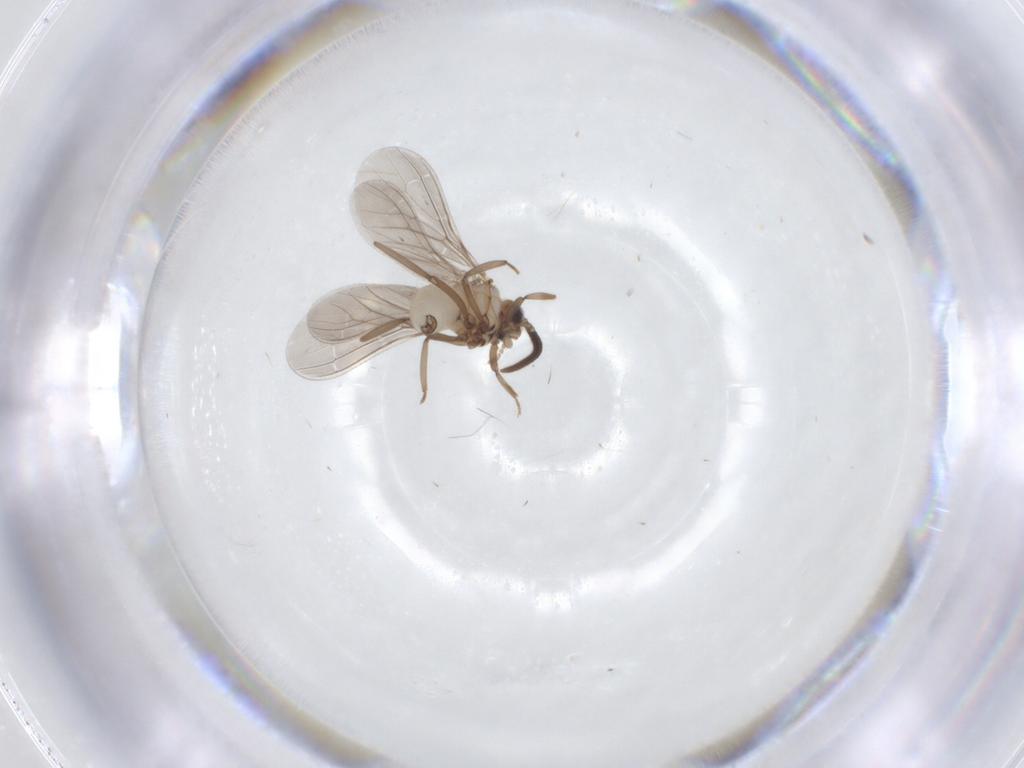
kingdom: Animalia
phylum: Arthropoda
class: Insecta
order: Neuroptera
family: Coniopterygidae
